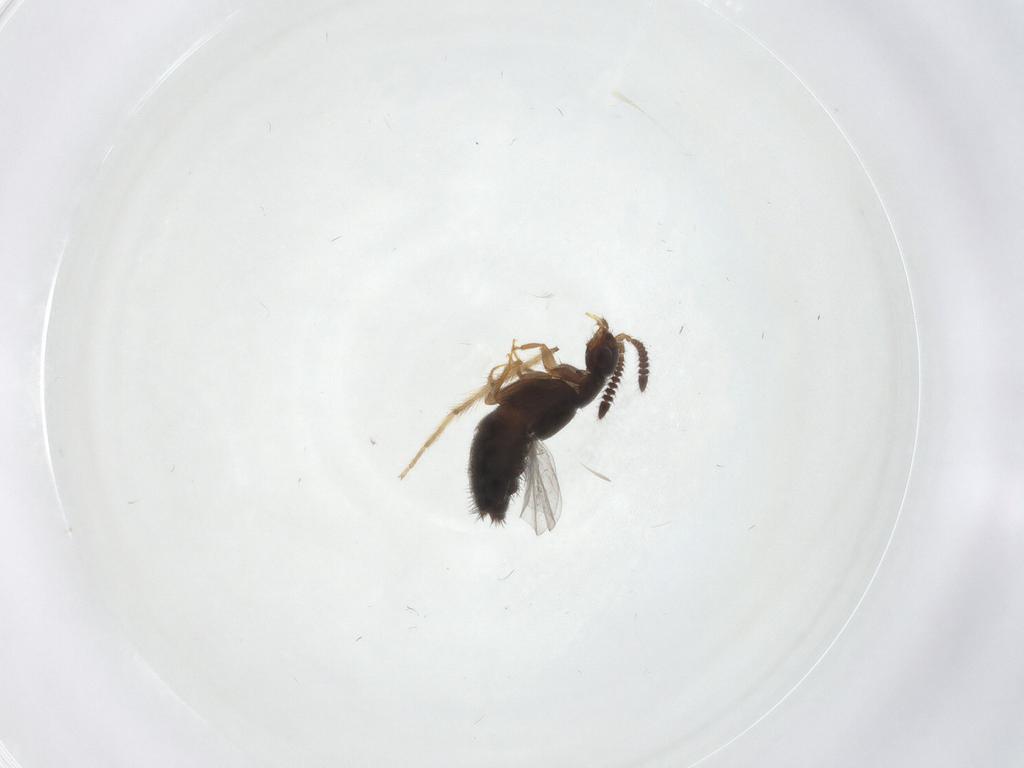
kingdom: Animalia
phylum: Arthropoda
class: Insecta
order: Coleoptera
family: Staphylinidae
